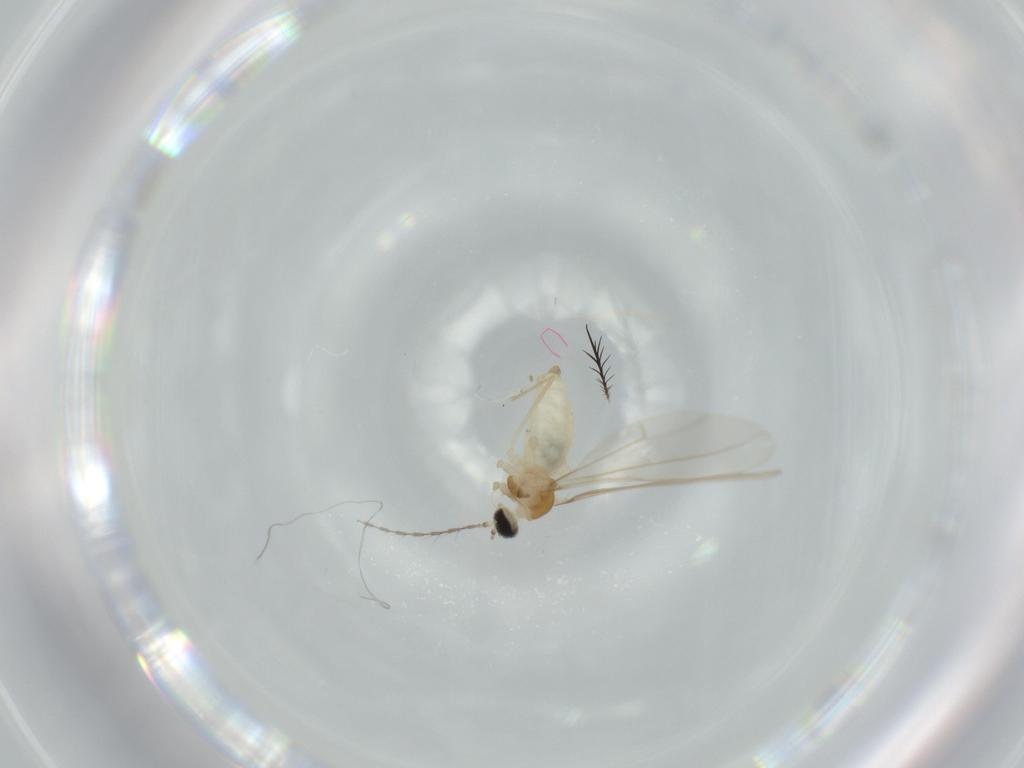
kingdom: Animalia
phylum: Arthropoda
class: Insecta
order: Diptera
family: Cecidomyiidae
